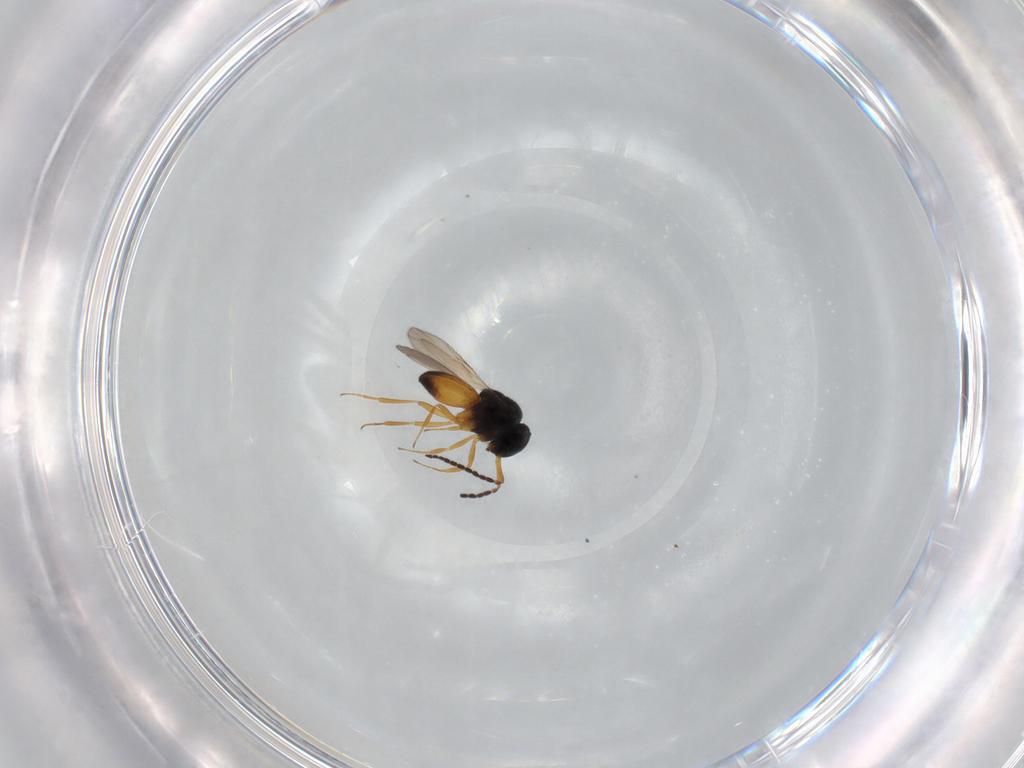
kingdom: Animalia
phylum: Arthropoda
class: Insecta
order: Hymenoptera
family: Scelionidae
